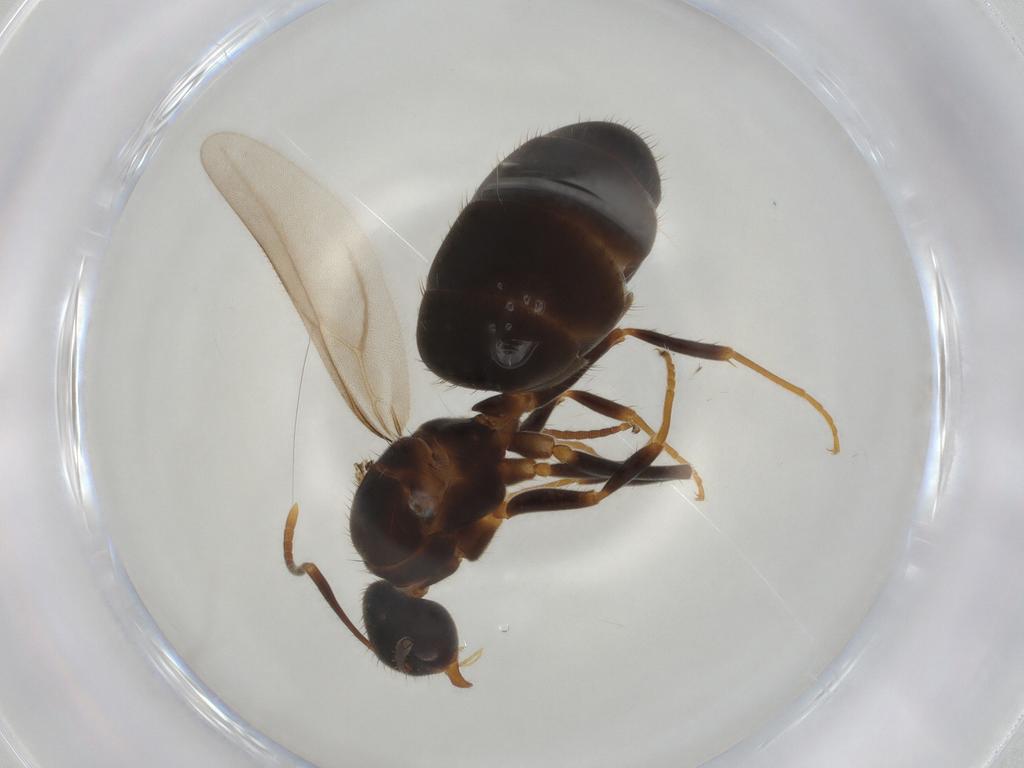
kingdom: Animalia
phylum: Arthropoda
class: Insecta
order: Hymenoptera
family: Formicidae
